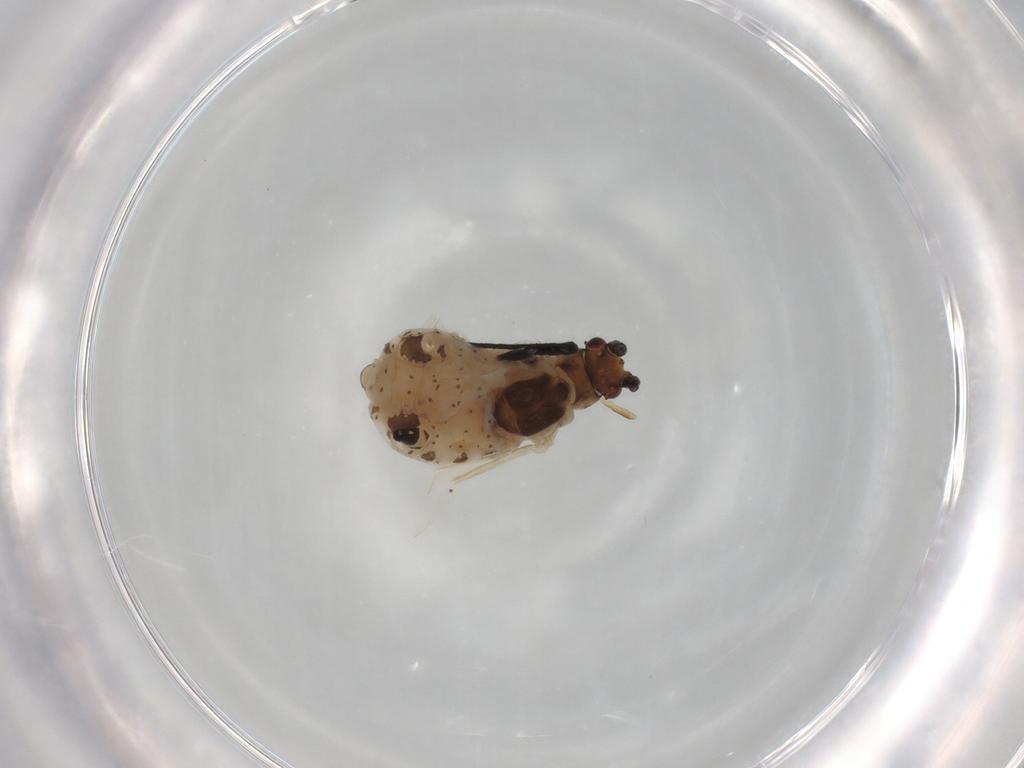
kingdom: Animalia
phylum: Arthropoda
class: Insecta
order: Hemiptera
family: Aphididae
